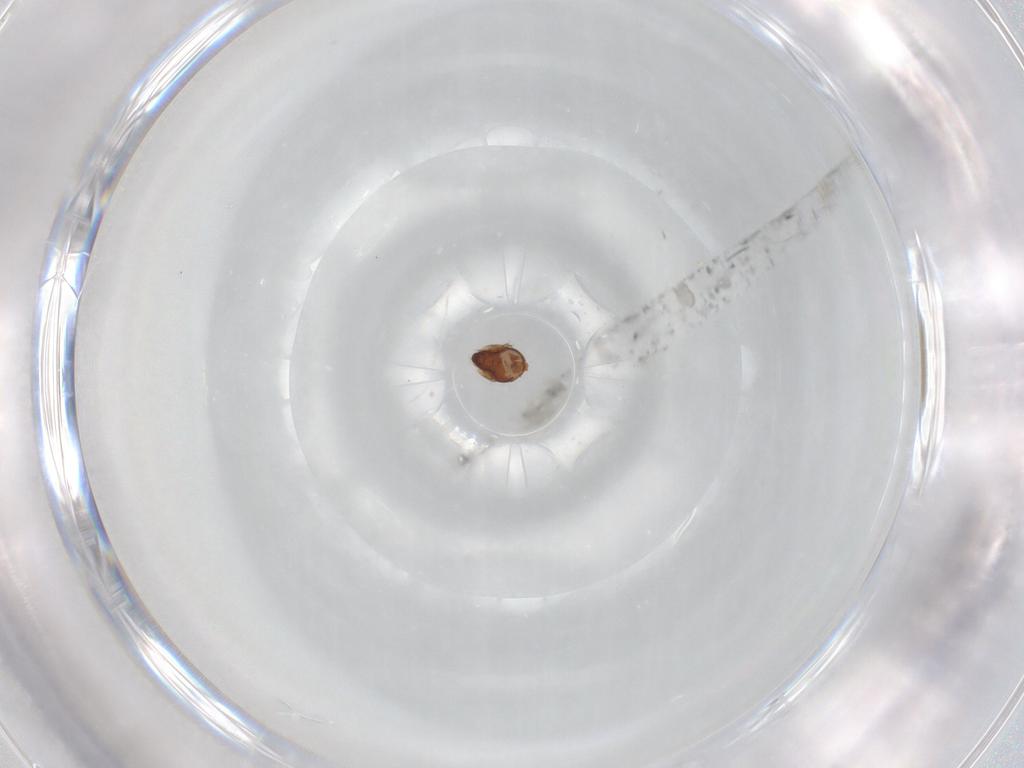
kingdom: Animalia
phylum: Arthropoda
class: Arachnida
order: Sarcoptiformes
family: Tegoribatidae
